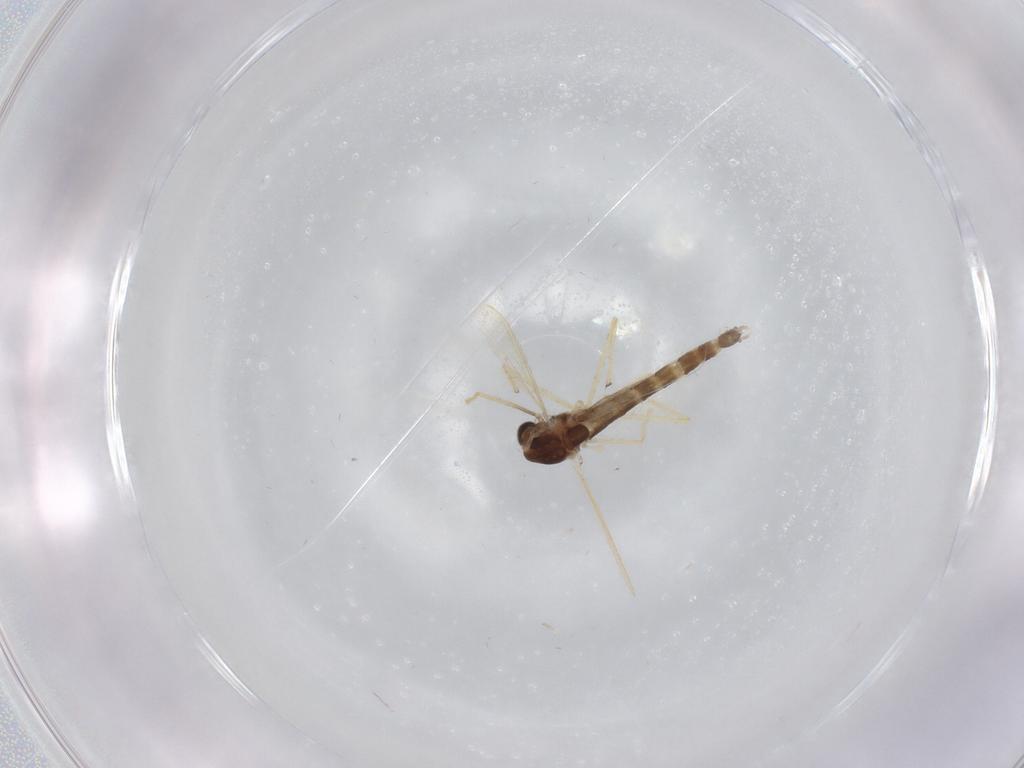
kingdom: Animalia
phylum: Arthropoda
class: Insecta
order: Diptera
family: Chironomidae
